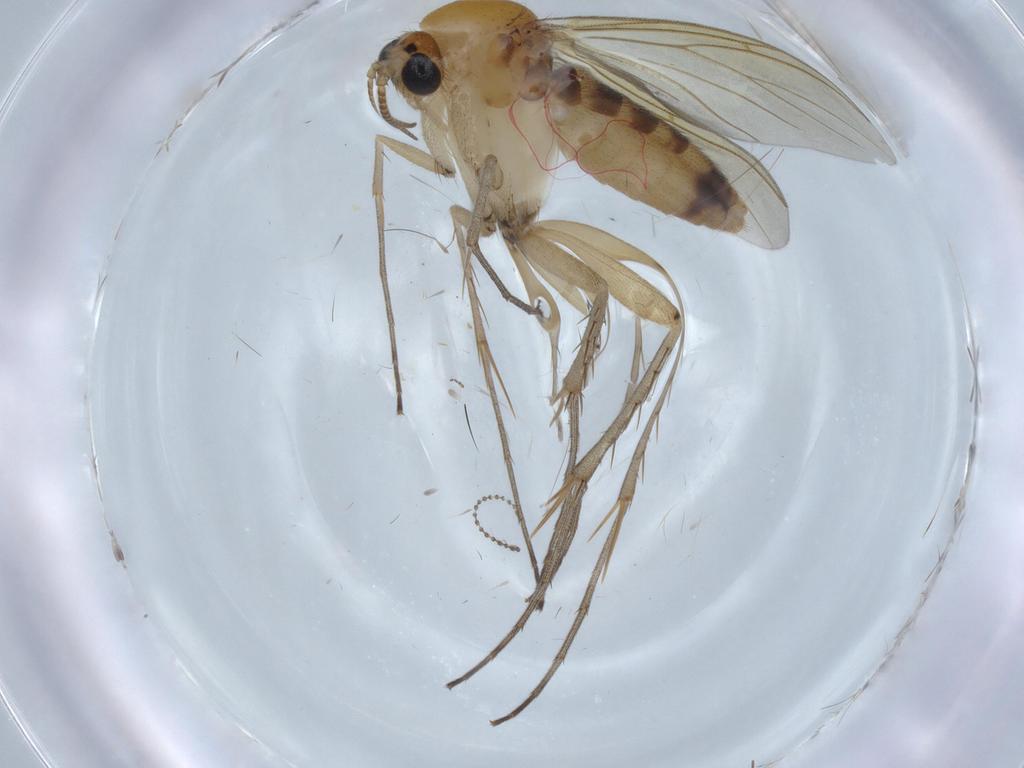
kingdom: Animalia
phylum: Arthropoda
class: Insecta
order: Diptera
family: Mycetophilidae
